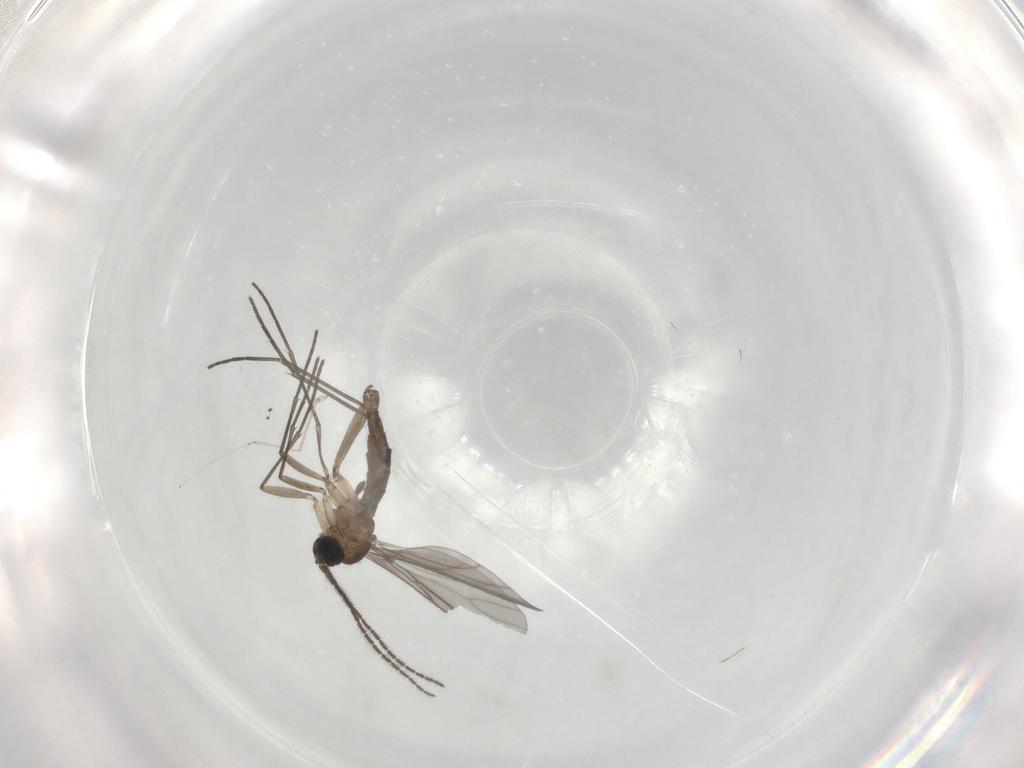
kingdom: Animalia
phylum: Arthropoda
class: Insecta
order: Diptera
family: Sciaridae
